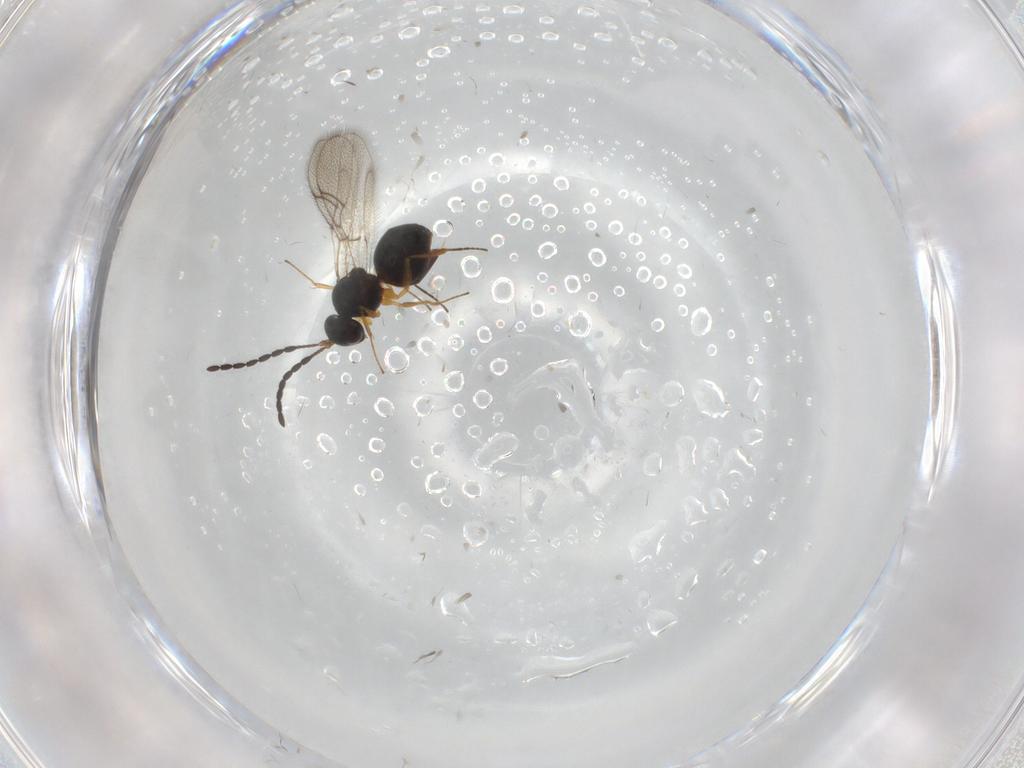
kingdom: Animalia
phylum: Arthropoda
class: Insecta
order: Hymenoptera
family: Figitidae
